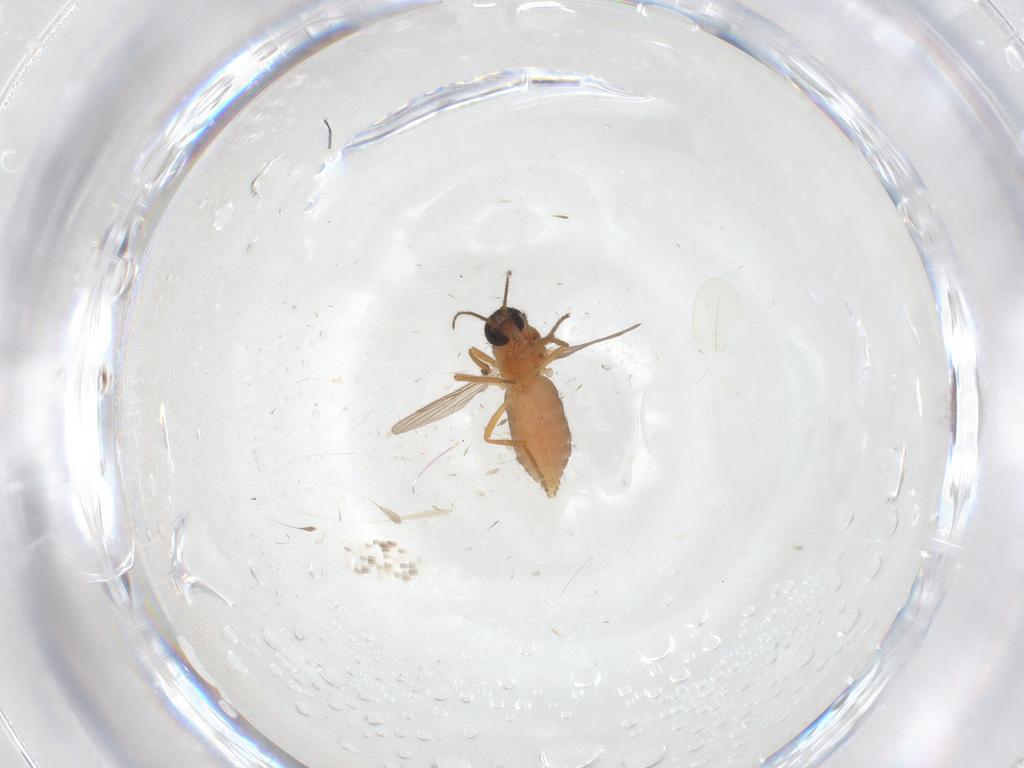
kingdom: Animalia
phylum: Arthropoda
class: Insecta
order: Diptera
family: Cecidomyiidae
